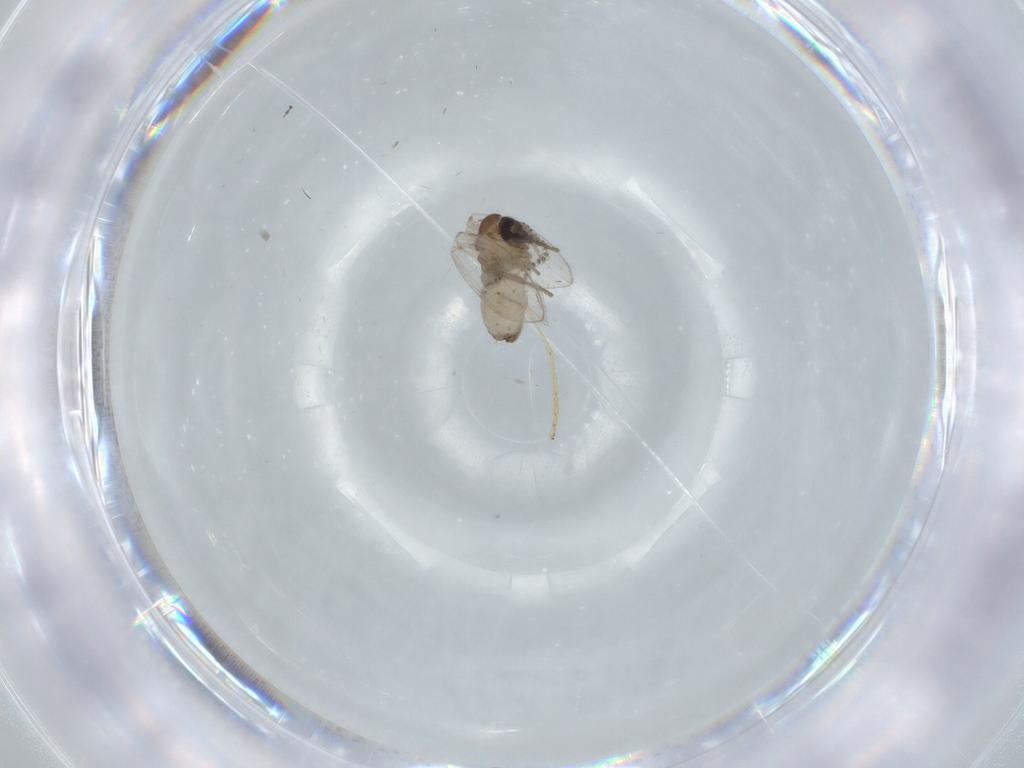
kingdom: Animalia
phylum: Arthropoda
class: Insecta
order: Diptera
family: Psychodidae
